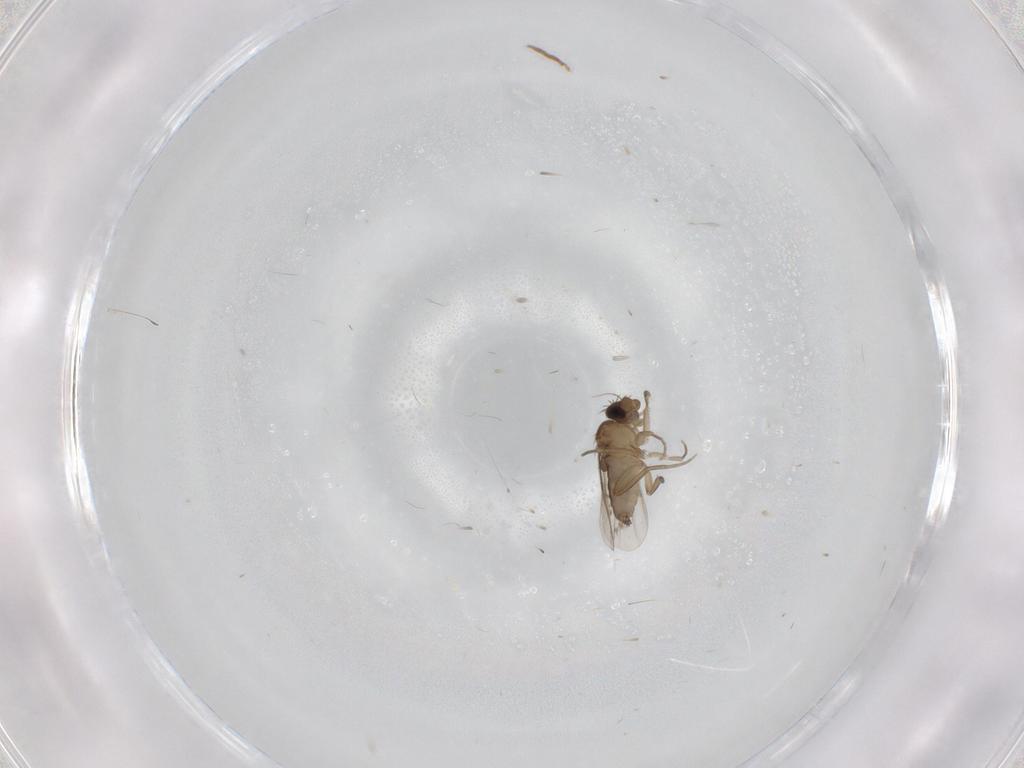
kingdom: Animalia
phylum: Arthropoda
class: Insecta
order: Diptera
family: Phoridae
